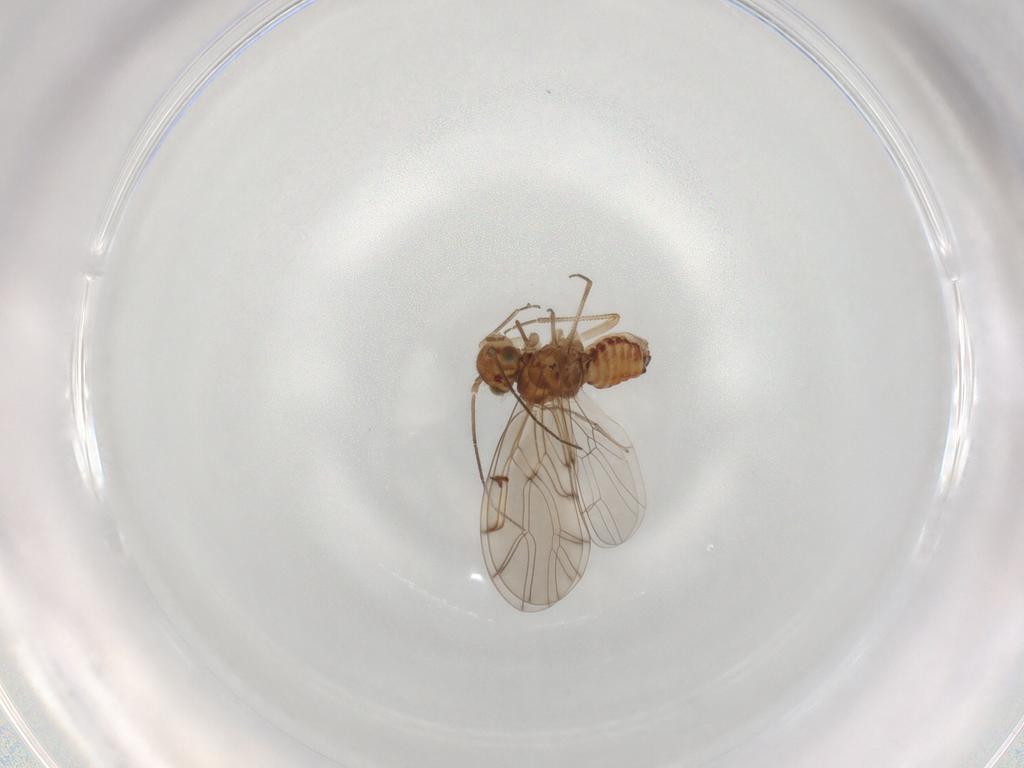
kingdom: Animalia
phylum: Arthropoda
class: Insecta
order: Diptera
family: Chironomidae
